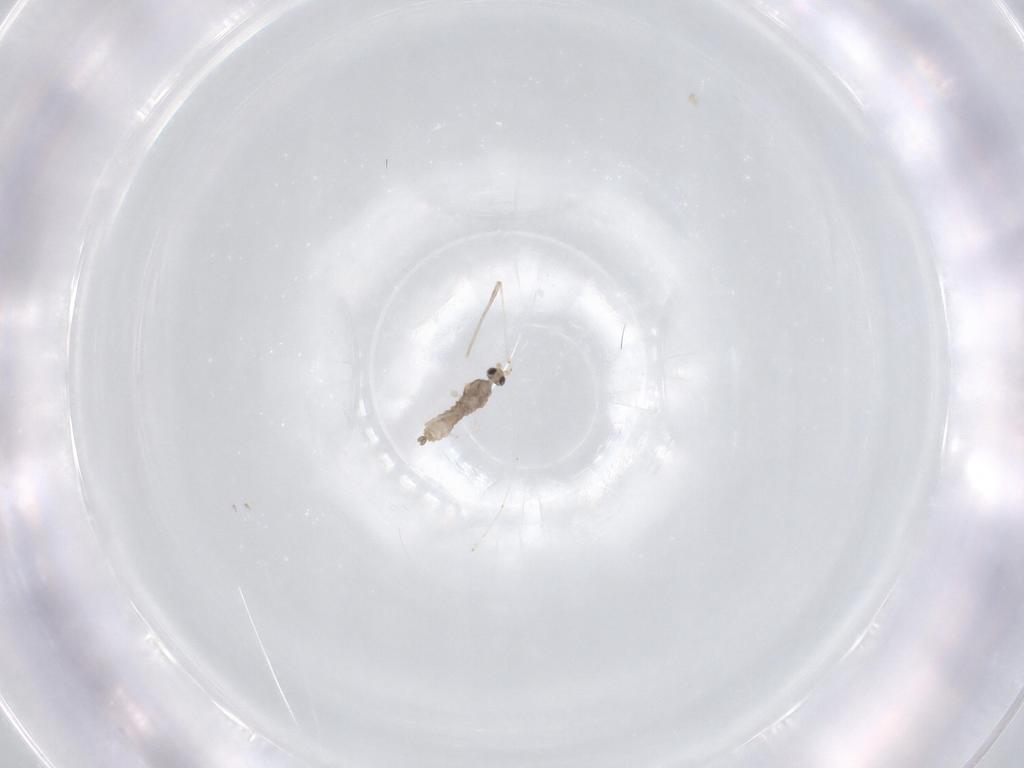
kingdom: Animalia
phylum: Arthropoda
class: Insecta
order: Diptera
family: Cecidomyiidae
